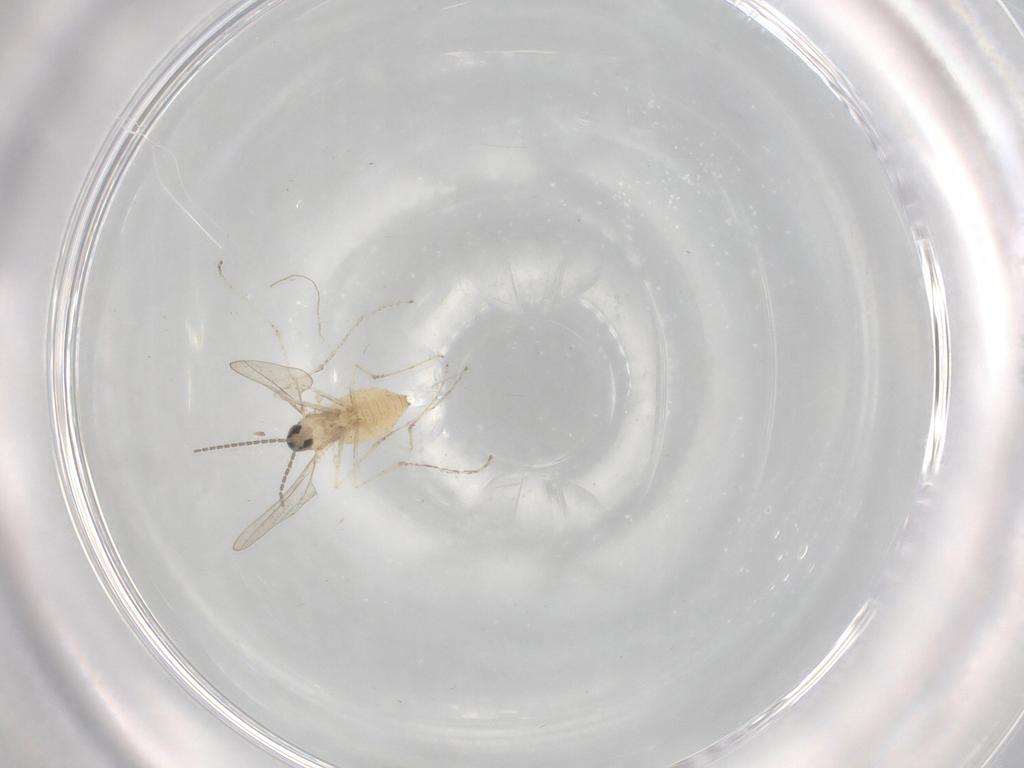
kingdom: Animalia
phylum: Arthropoda
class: Insecta
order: Diptera
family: Cecidomyiidae
